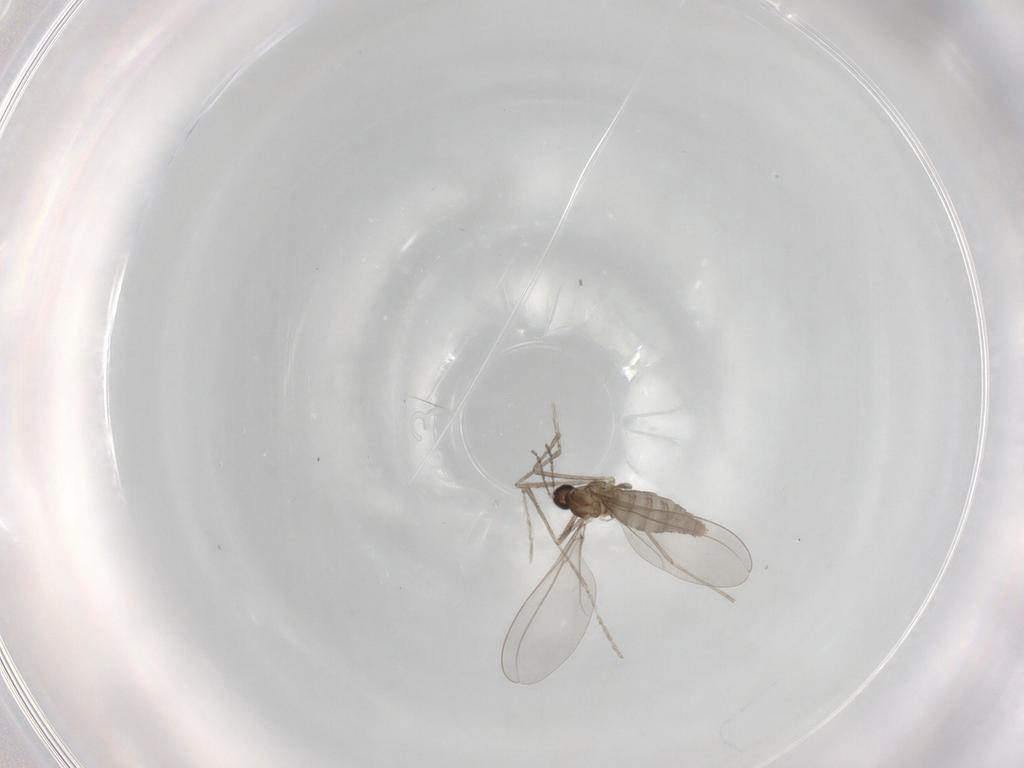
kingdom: Animalia
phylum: Arthropoda
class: Insecta
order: Diptera
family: Cecidomyiidae
